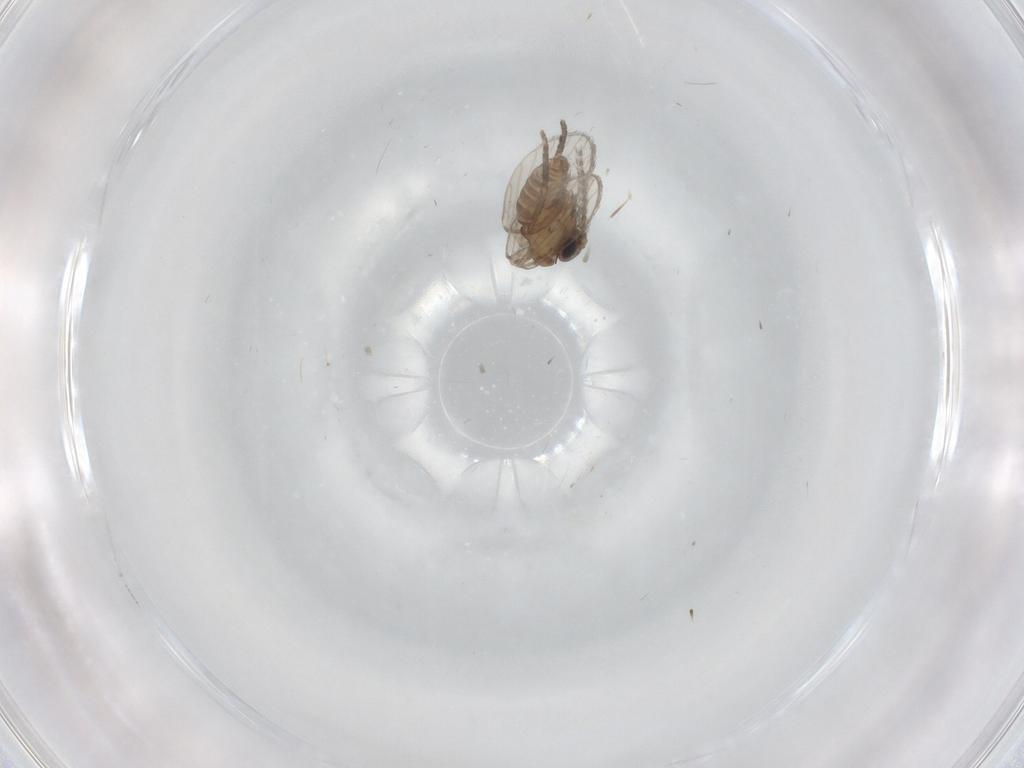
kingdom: Animalia
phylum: Arthropoda
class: Insecta
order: Diptera
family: Psychodidae
